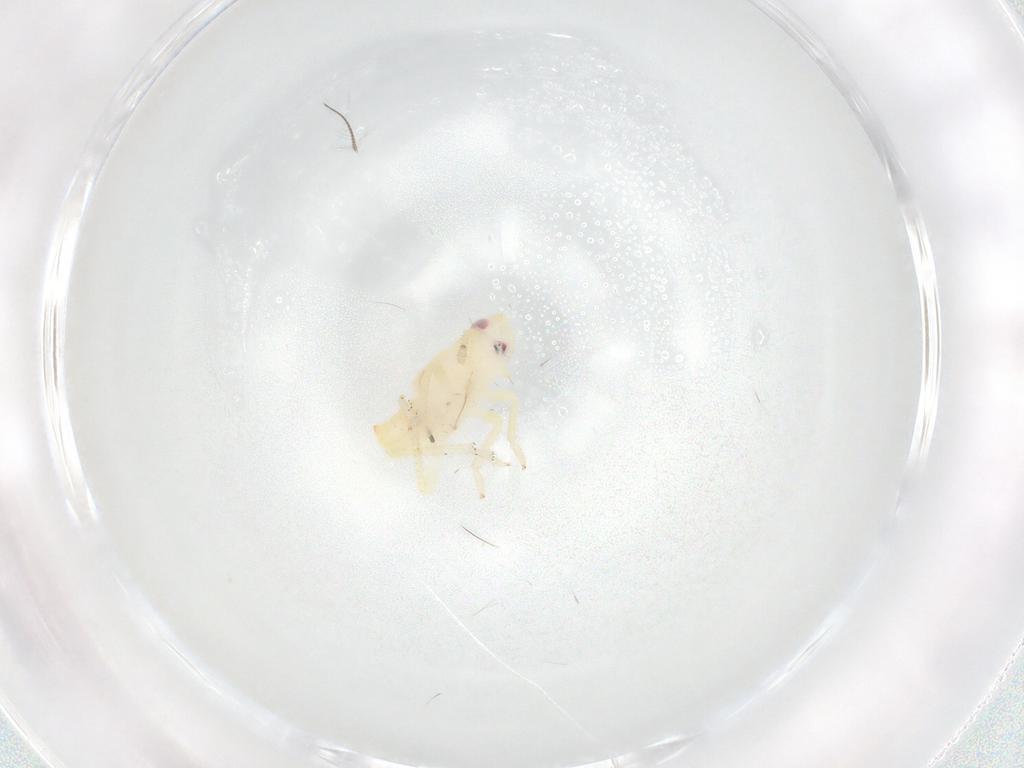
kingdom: Animalia
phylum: Arthropoda
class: Insecta
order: Hemiptera
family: Tropiduchidae
